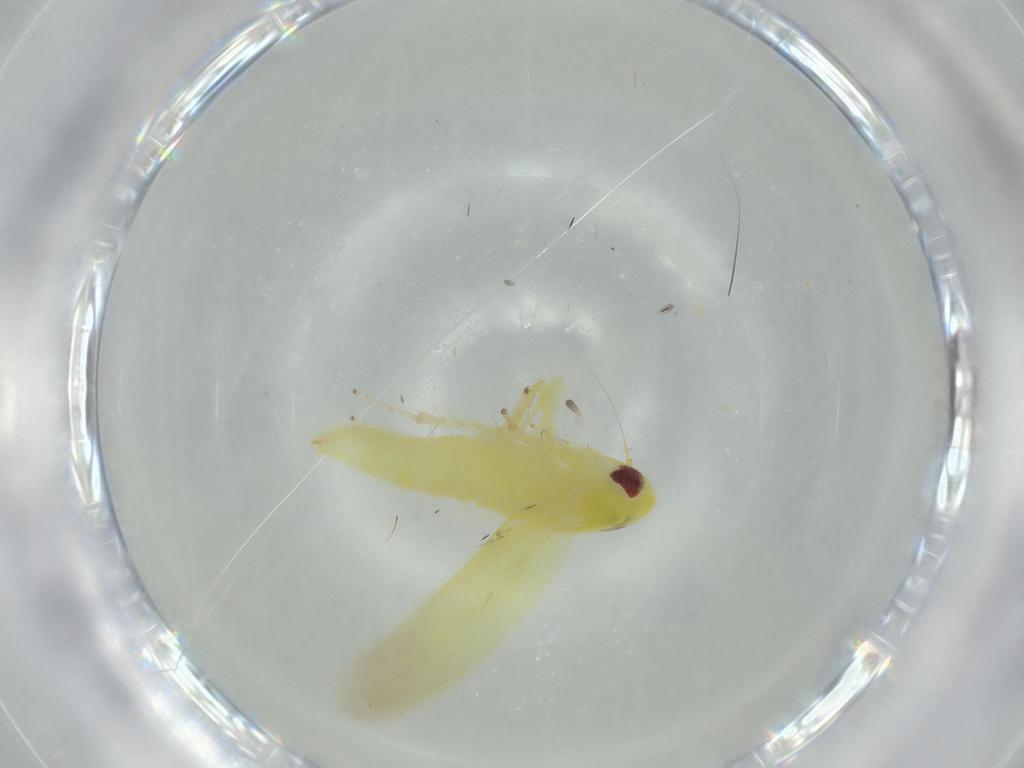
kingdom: Animalia
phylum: Arthropoda
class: Insecta
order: Hemiptera
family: Cicadellidae
